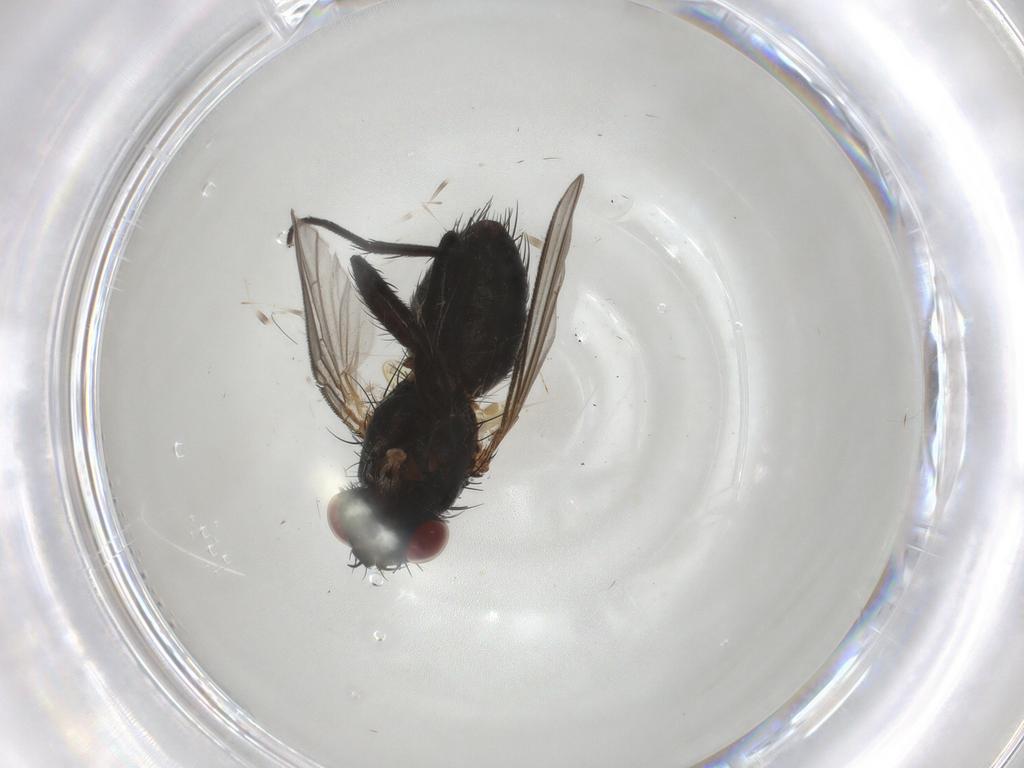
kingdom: Animalia
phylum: Arthropoda
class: Insecta
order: Diptera
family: Tachinidae
